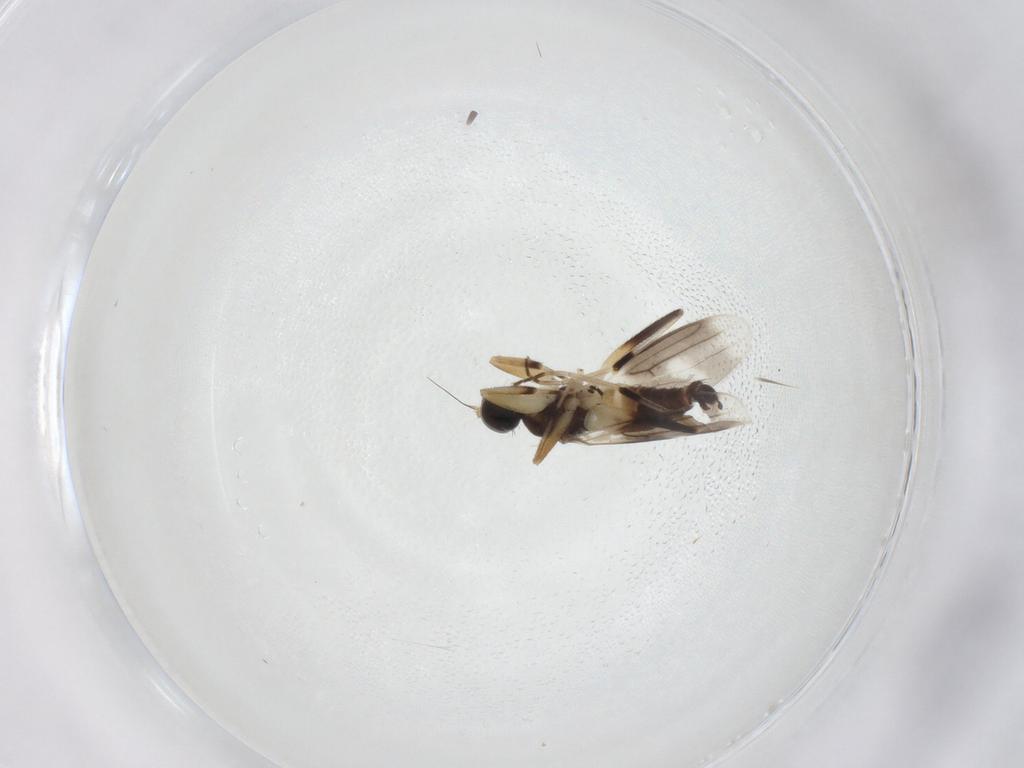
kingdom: Animalia
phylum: Arthropoda
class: Insecta
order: Diptera
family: Hybotidae
